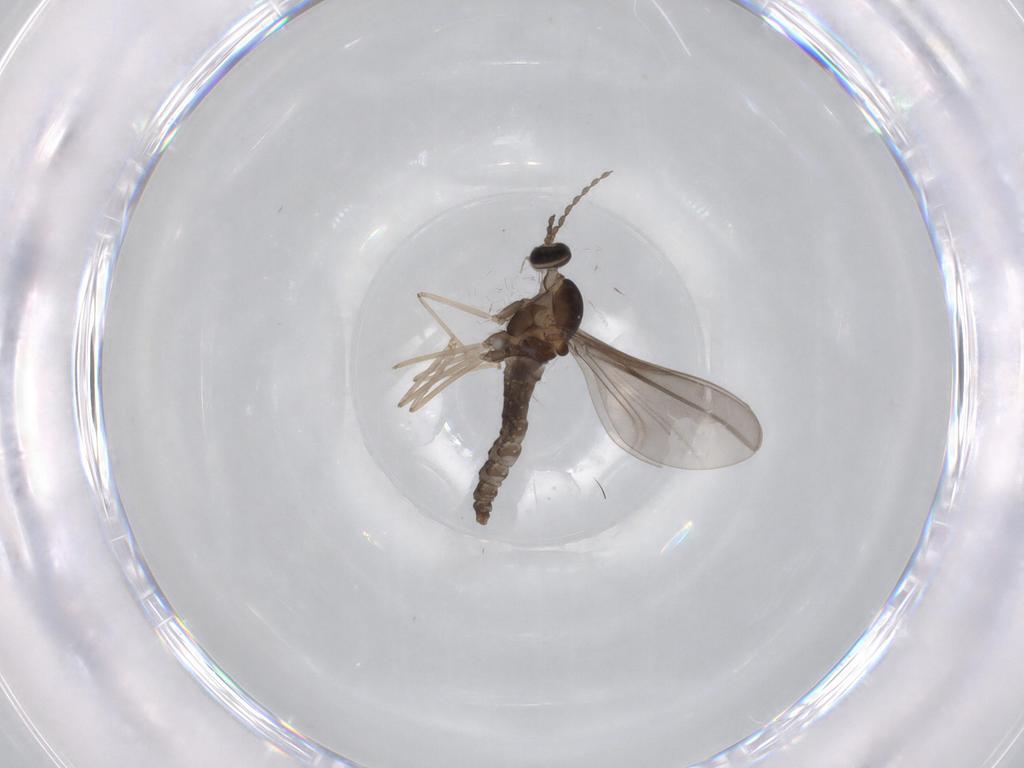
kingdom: Animalia
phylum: Arthropoda
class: Insecta
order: Diptera
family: Cecidomyiidae
